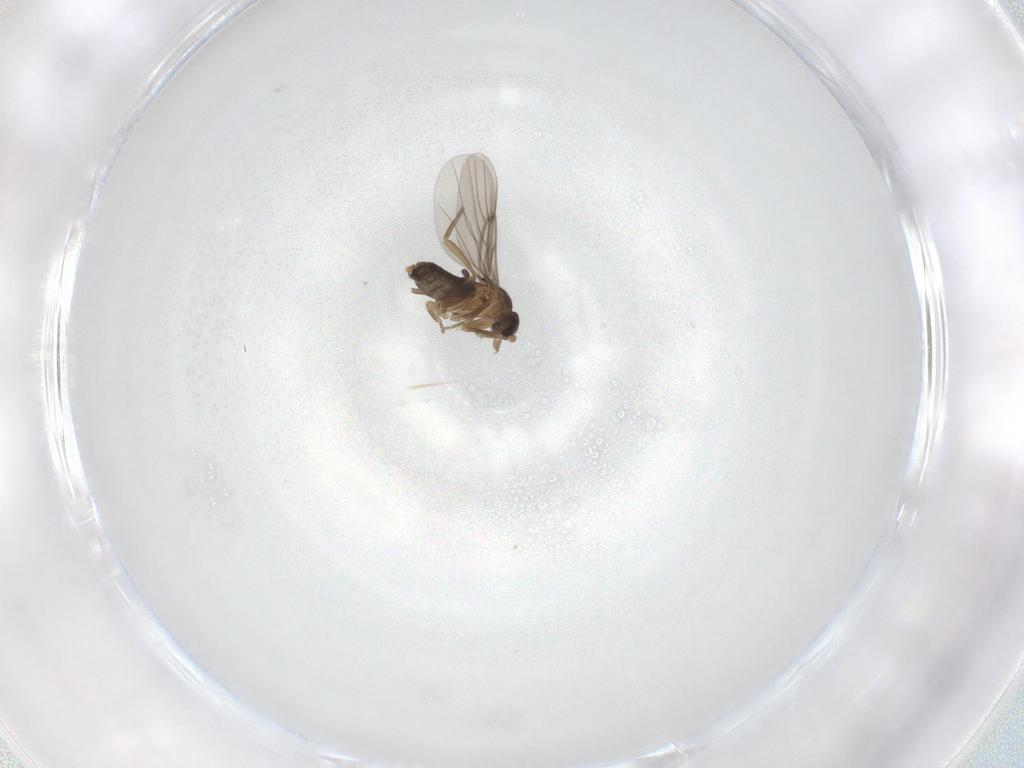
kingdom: Animalia
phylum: Arthropoda
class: Insecta
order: Diptera
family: Phoridae
